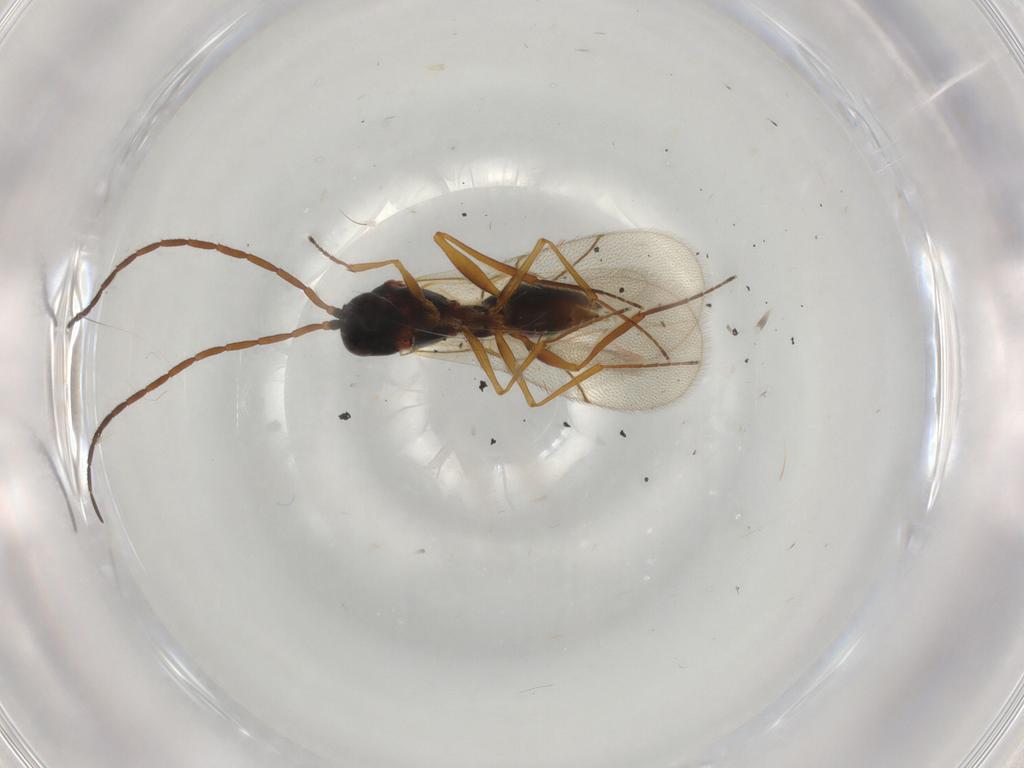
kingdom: Animalia
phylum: Arthropoda
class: Insecta
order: Hymenoptera
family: Figitidae
